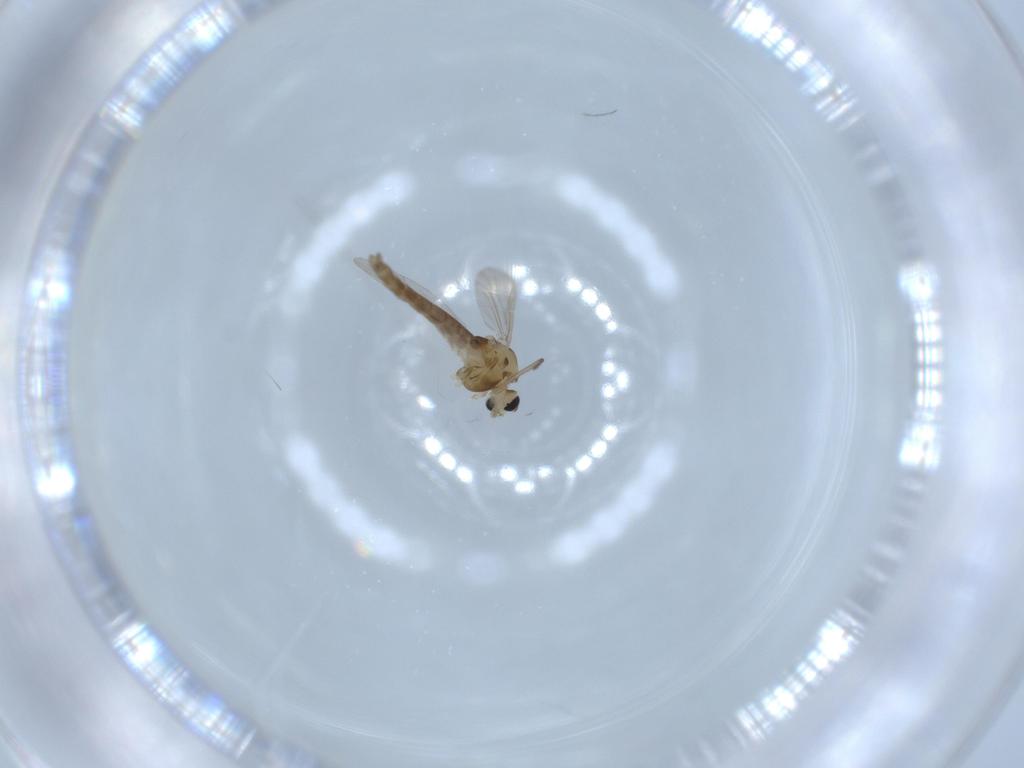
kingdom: Animalia
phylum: Arthropoda
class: Insecta
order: Diptera
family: Chironomidae
